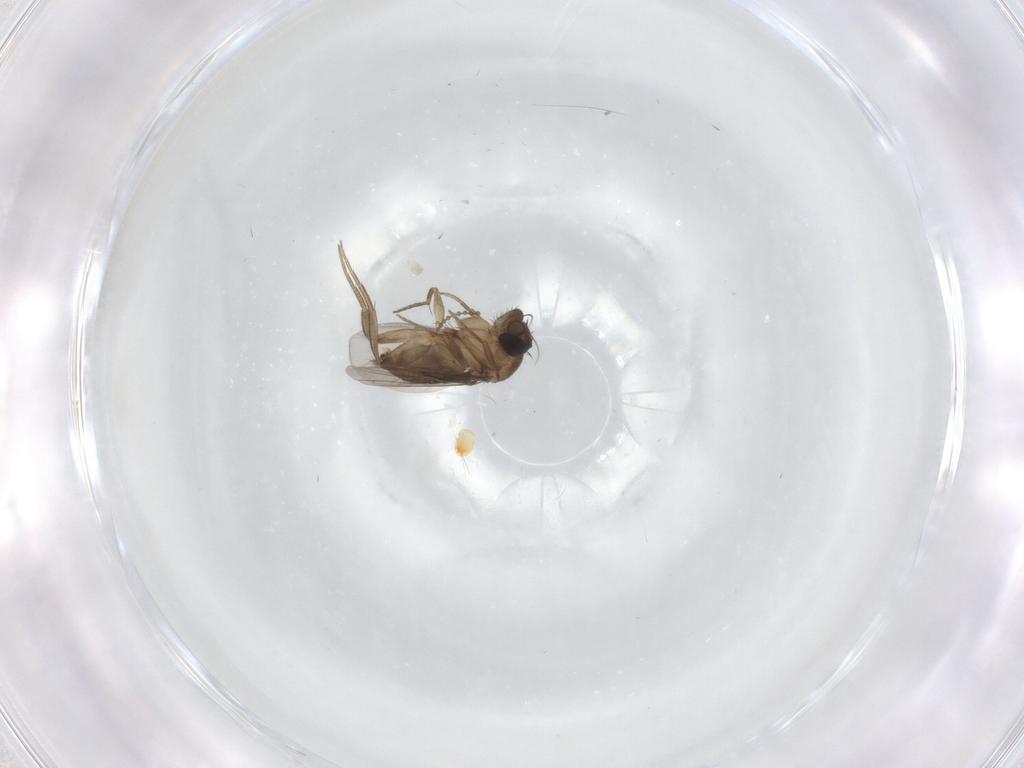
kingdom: Animalia
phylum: Arthropoda
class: Insecta
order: Diptera
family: Phoridae
